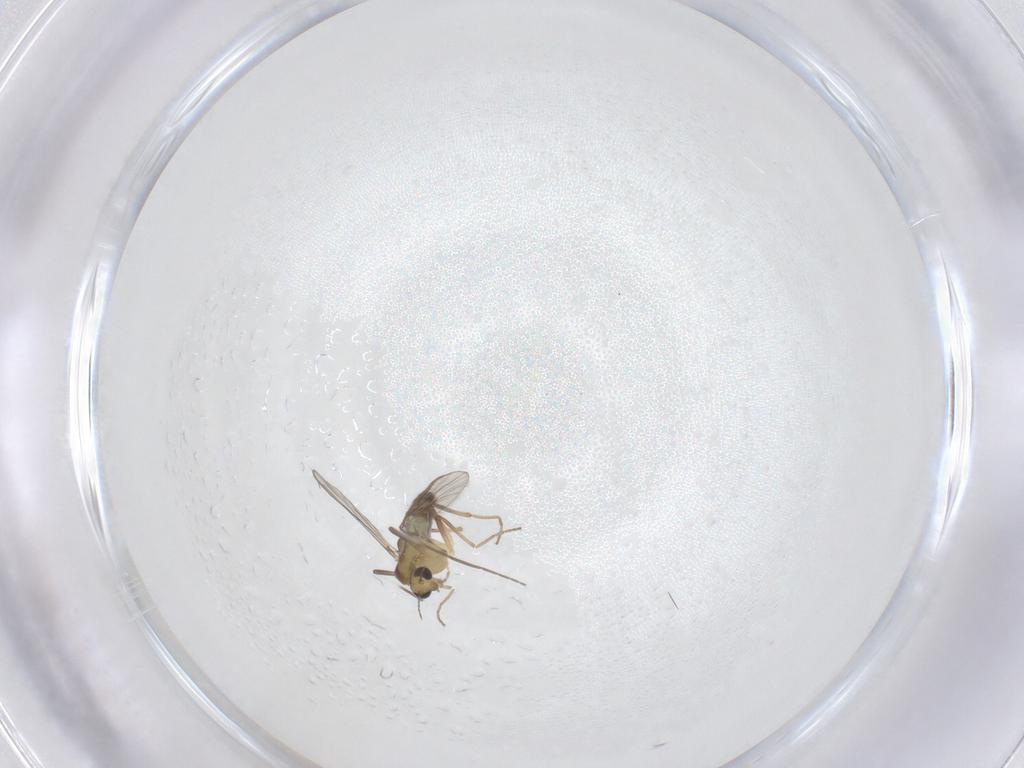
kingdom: Animalia
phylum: Arthropoda
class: Insecta
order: Diptera
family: Chironomidae
